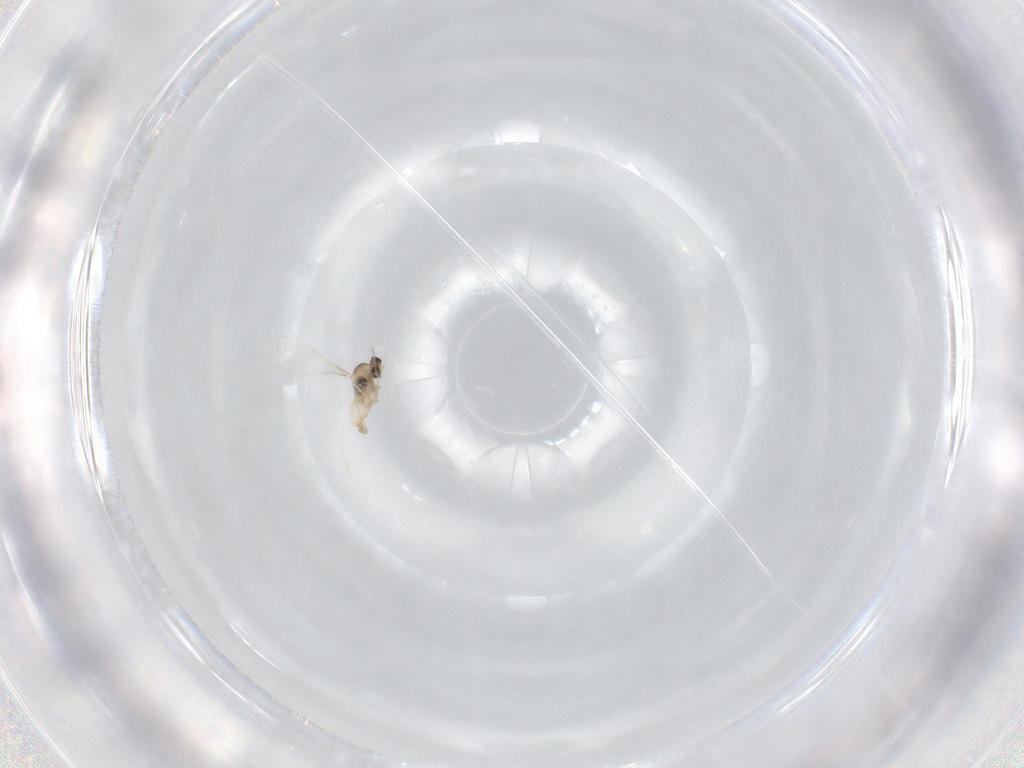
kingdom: Animalia
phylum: Arthropoda
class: Insecta
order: Diptera
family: Cecidomyiidae
